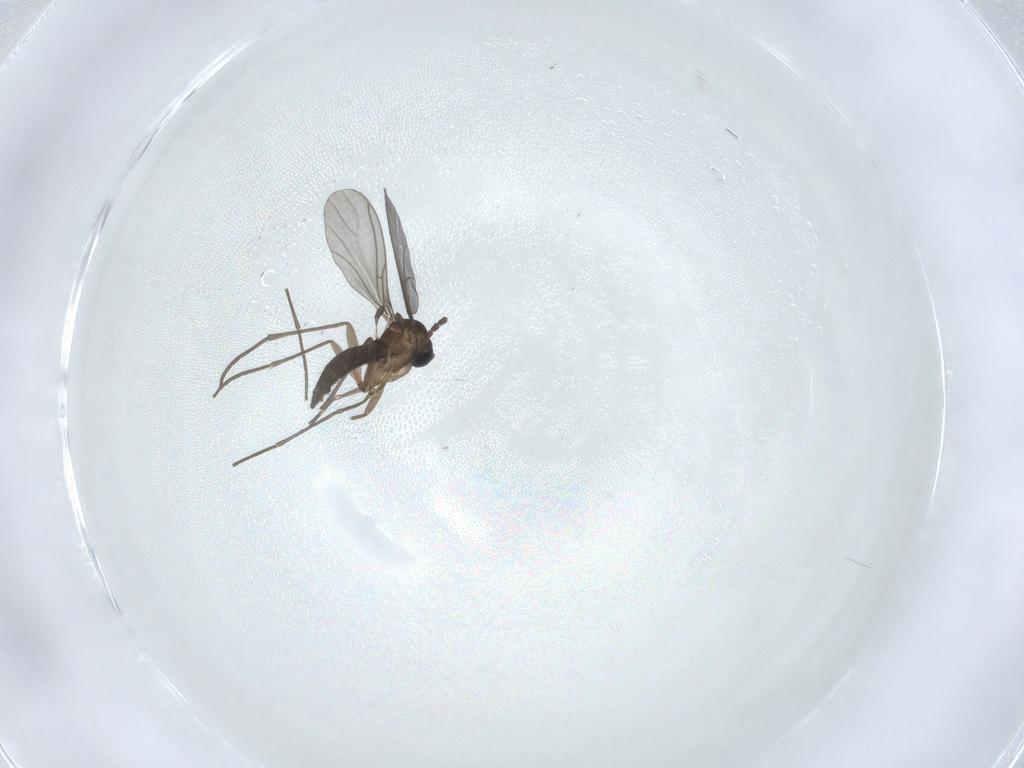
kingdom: Animalia
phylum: Arthropoda
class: Insecta
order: Diptera
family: Sciaridae
